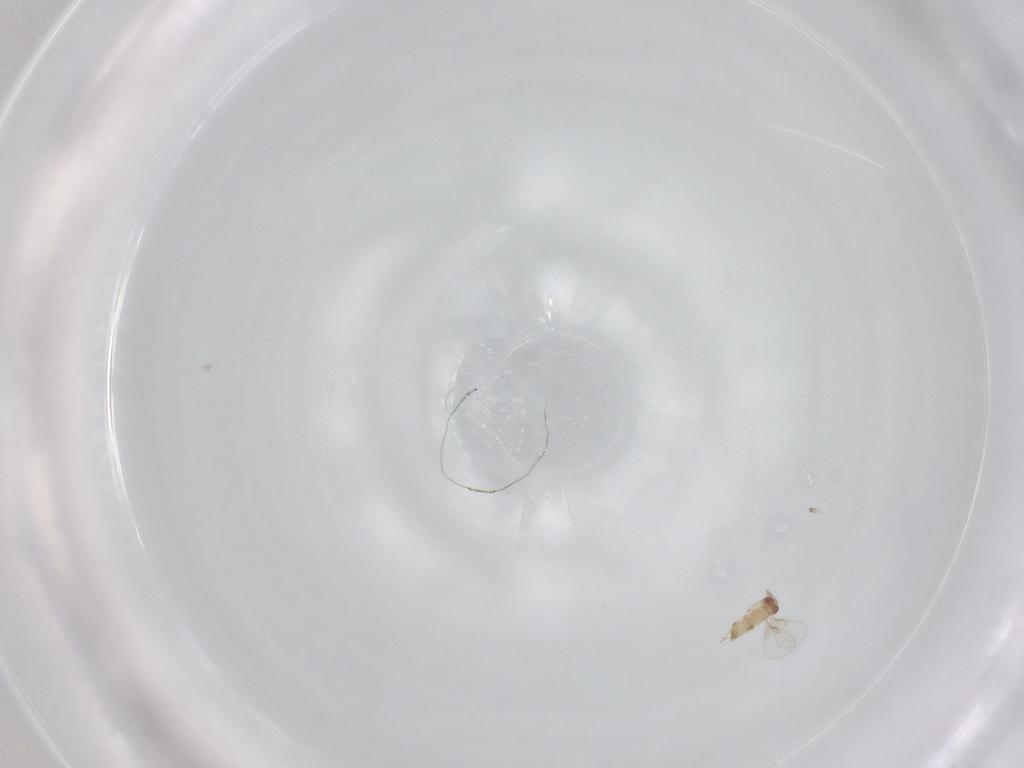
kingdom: Animalia
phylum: Arthropoda
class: Insecta
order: Hymenoptera
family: Trichogrammatidae
